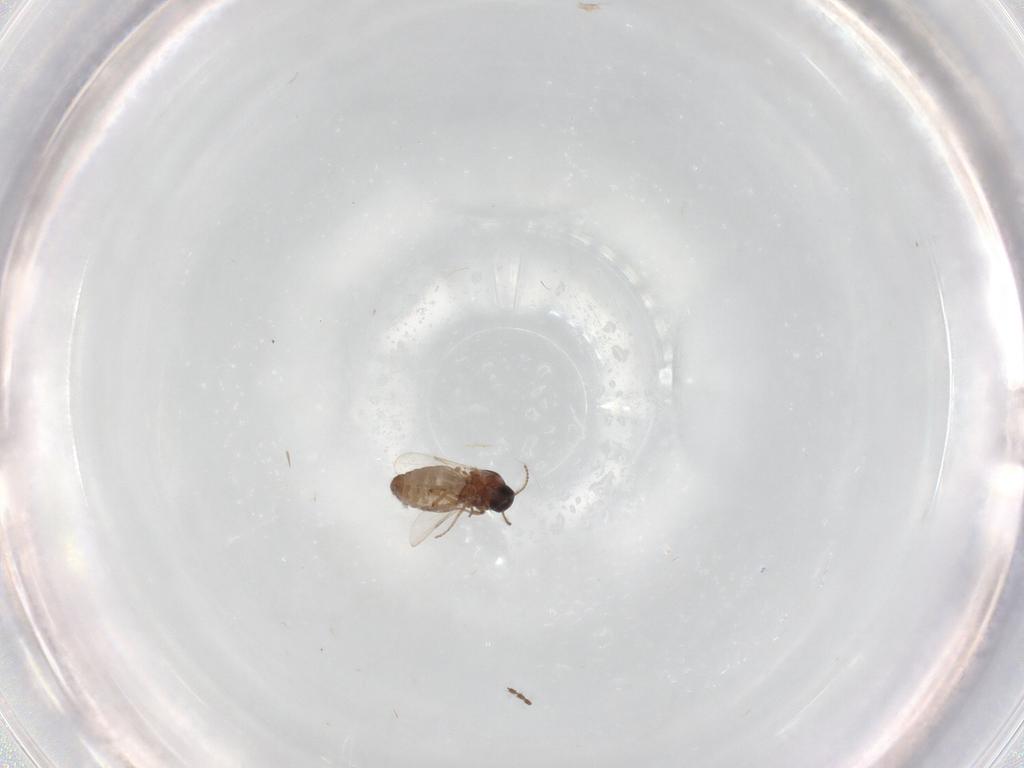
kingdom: Animalia
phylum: Arthropoda
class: Insecta
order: Diptera
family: Ceratopogonidae
